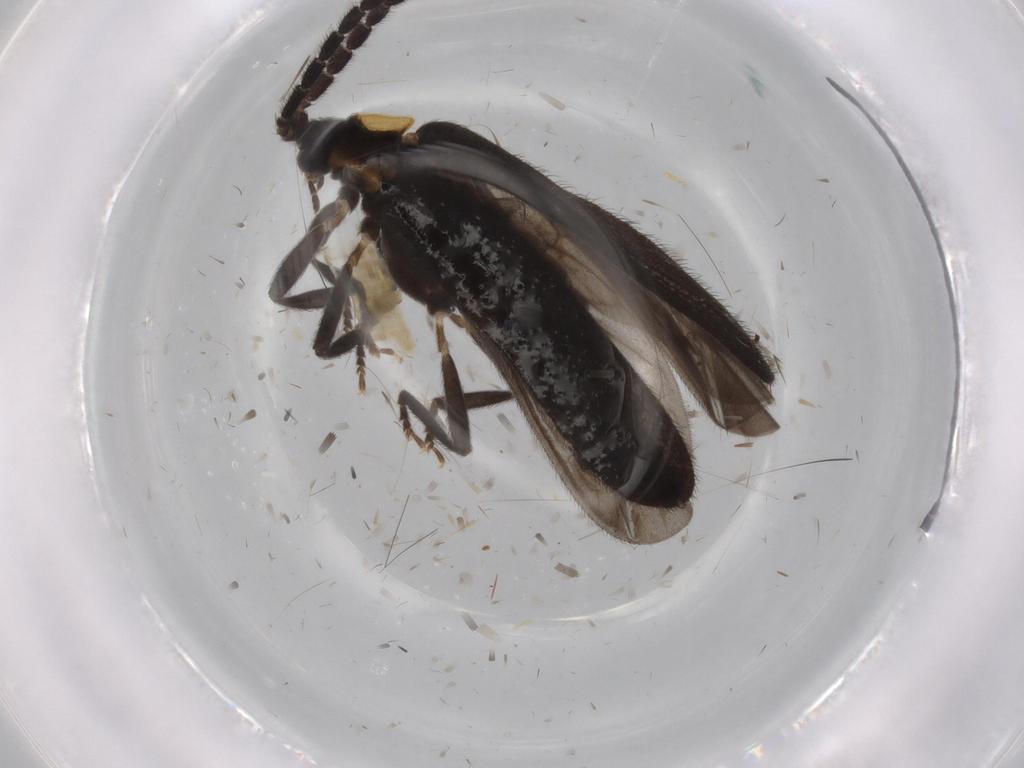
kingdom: Animalia
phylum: Arthropoda
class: Insecta
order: Coleoptera
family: Lycidae
